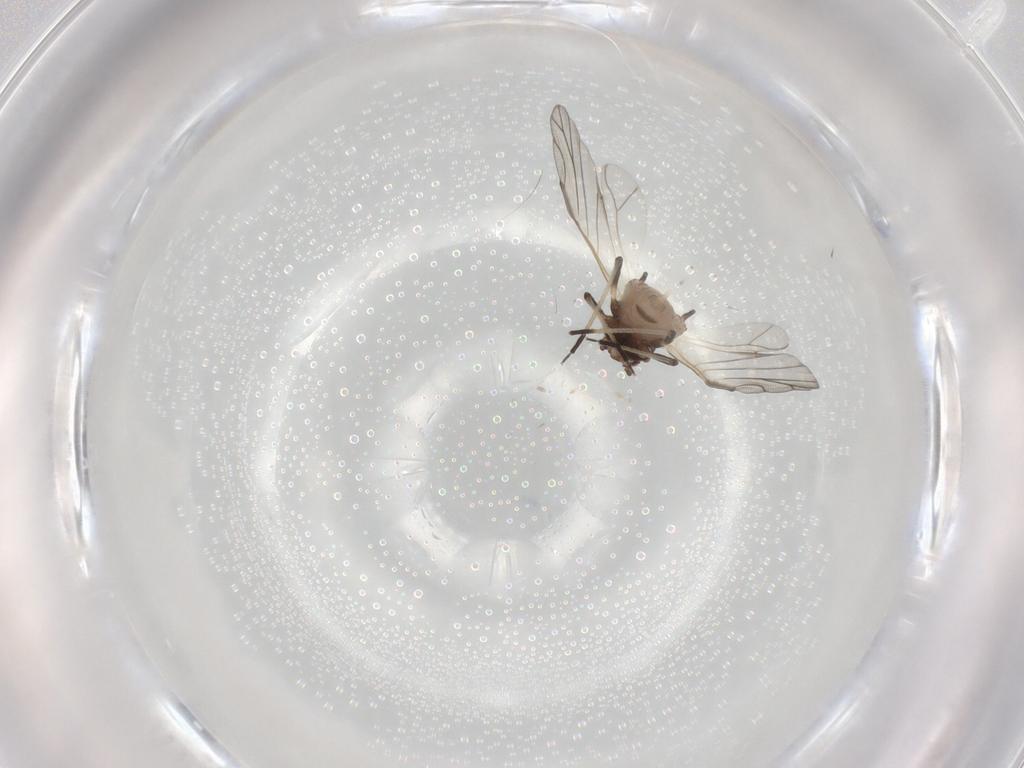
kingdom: Animalia
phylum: Arthropoda
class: Insecta
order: Hemiptera
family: Aphididae
